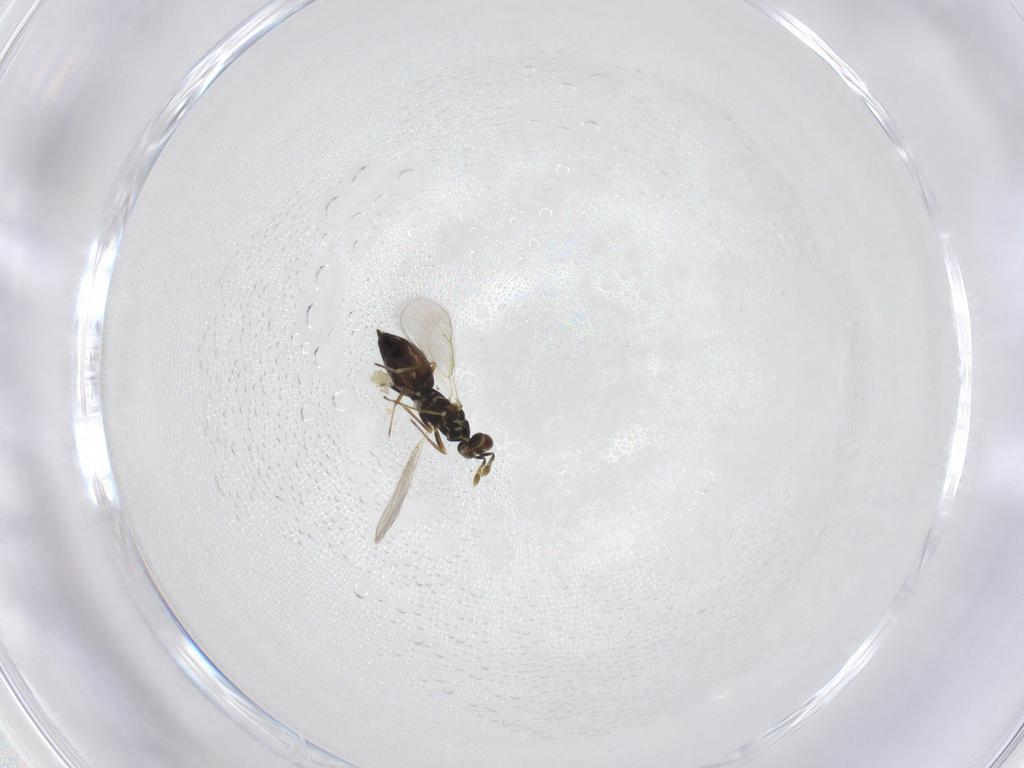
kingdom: Animalia
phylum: Arthropoda
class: Insecta
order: Hymenoptera
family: Eulophidae
